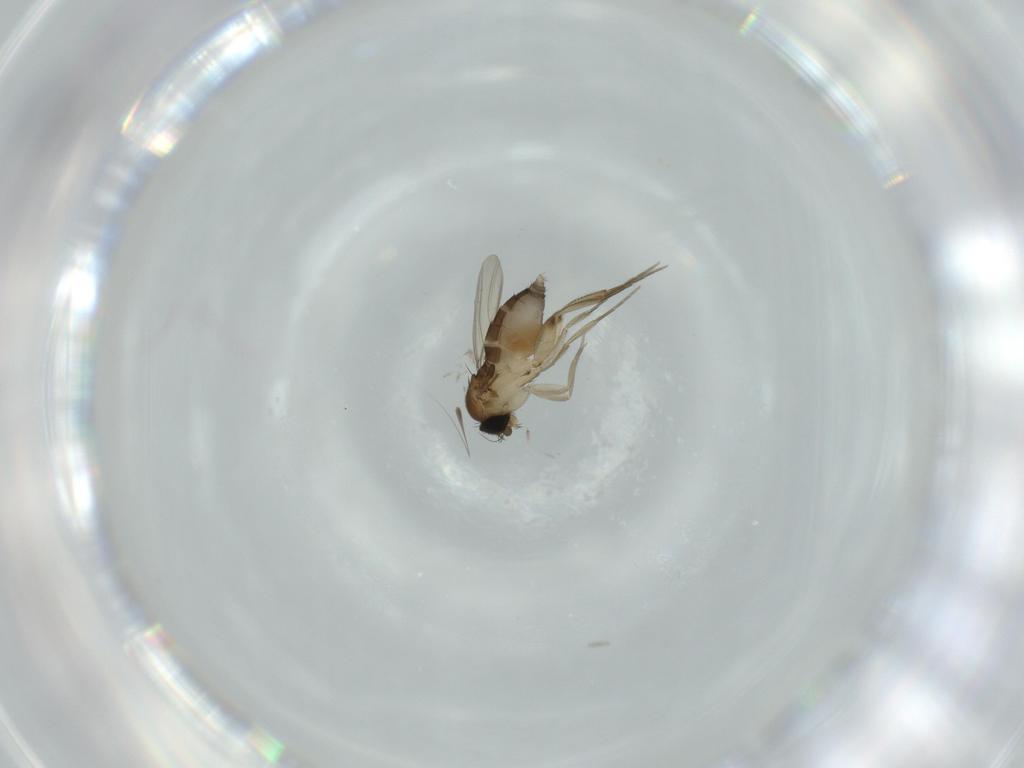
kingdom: Animalia
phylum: Arthropoda
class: Insecta
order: Diptera
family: Phoridae
